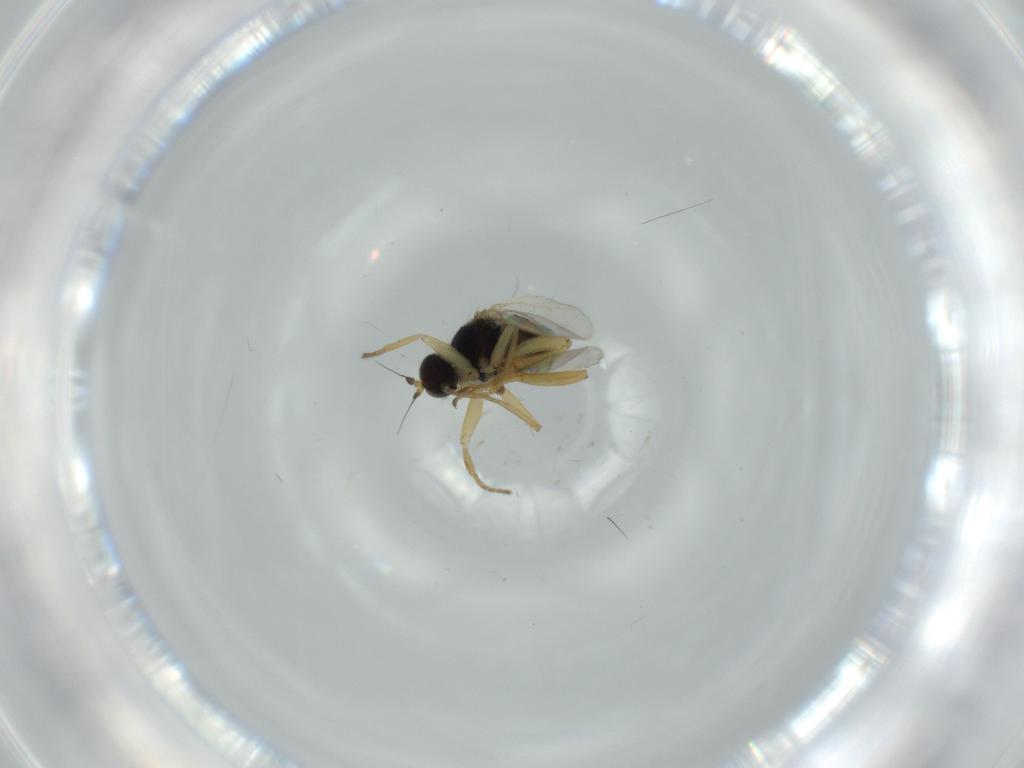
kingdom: Animalia
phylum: Arthropoda
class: Insecta
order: Diptera
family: Hybotidae
